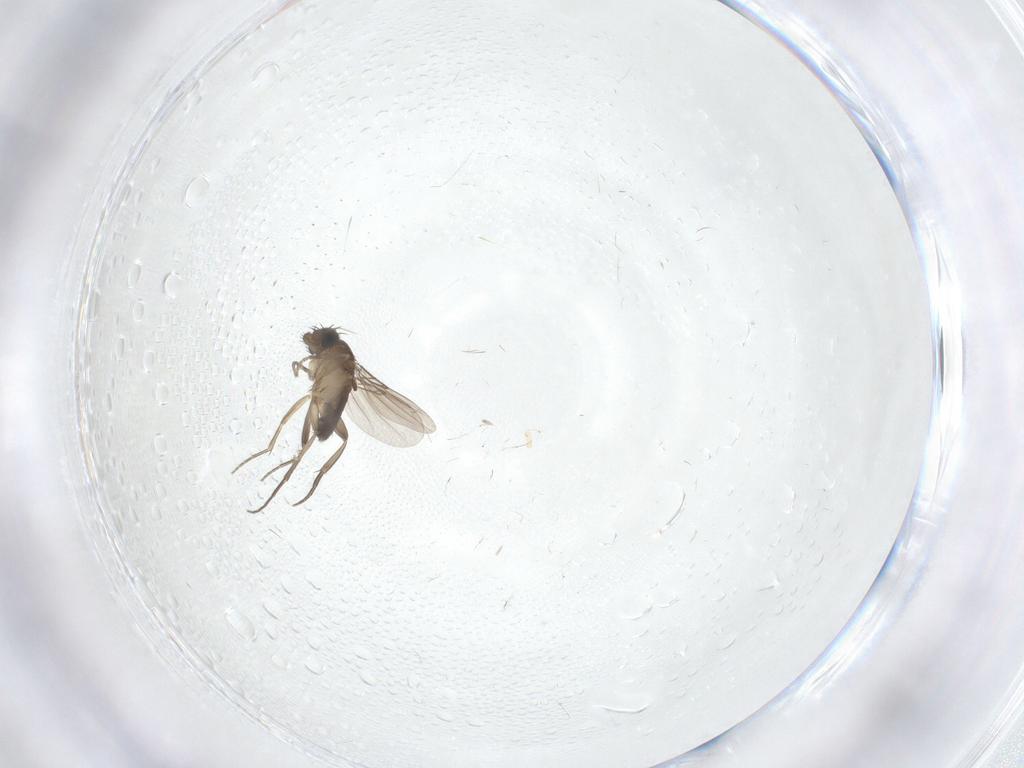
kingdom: Animalia
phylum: Arthropoda
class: Insecta
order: Diptera
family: Phoridae
